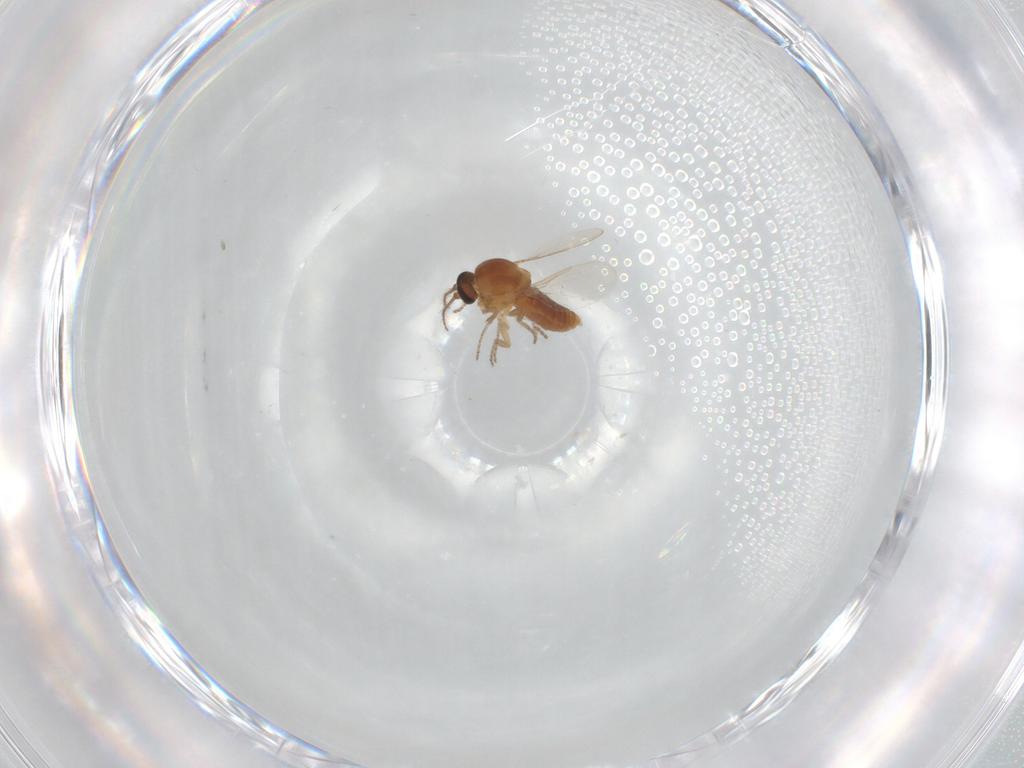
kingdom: Animalia
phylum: Arthropoda
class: Insecta
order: Diptera
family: Ceratopogonidae
